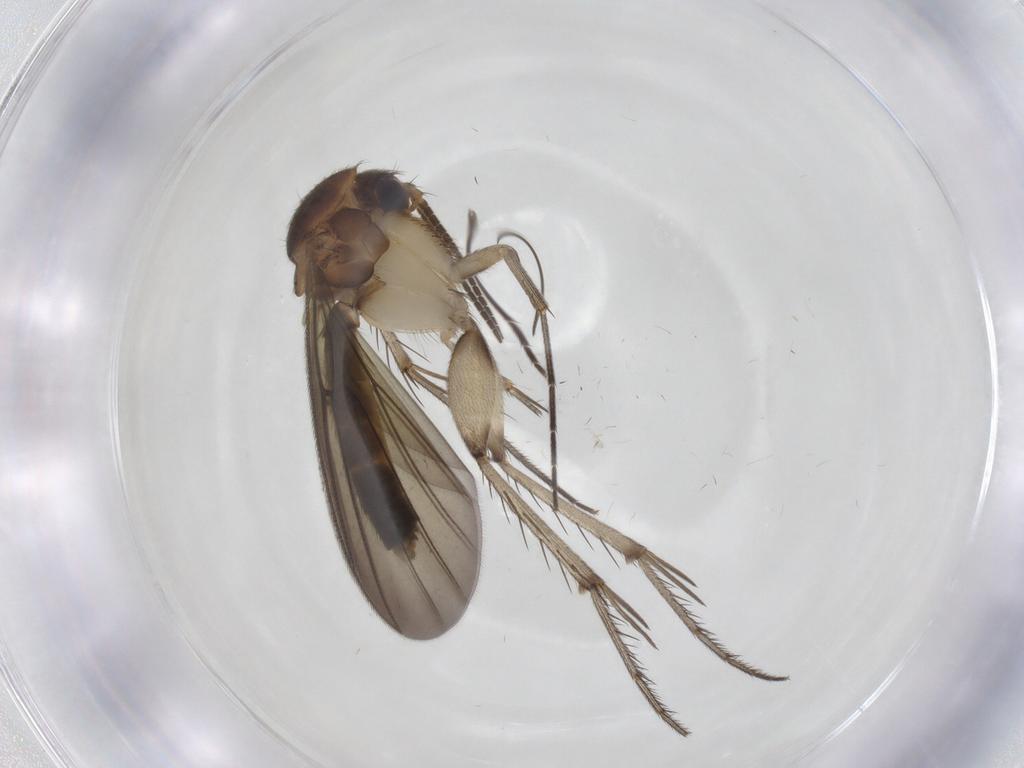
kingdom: Animalia
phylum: Arthropoda
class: Insecta
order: Diptera
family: Mycetophilidae
